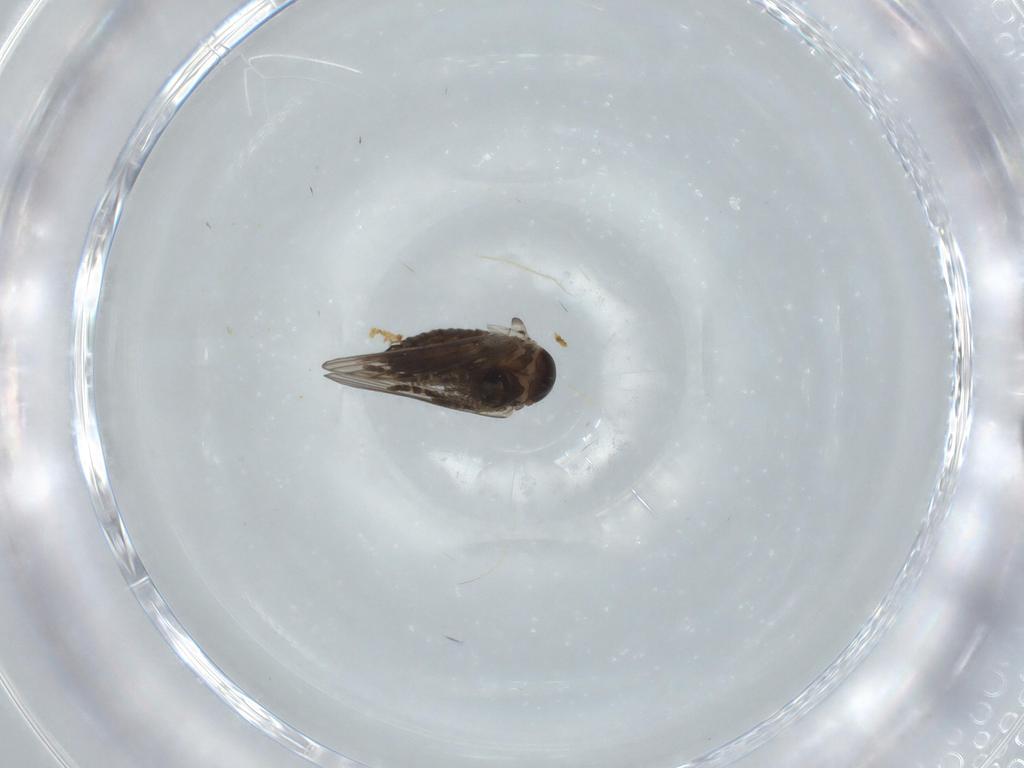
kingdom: Animalia
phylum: Arthropoda
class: Insecta
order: Diptera
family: Psychodidae
